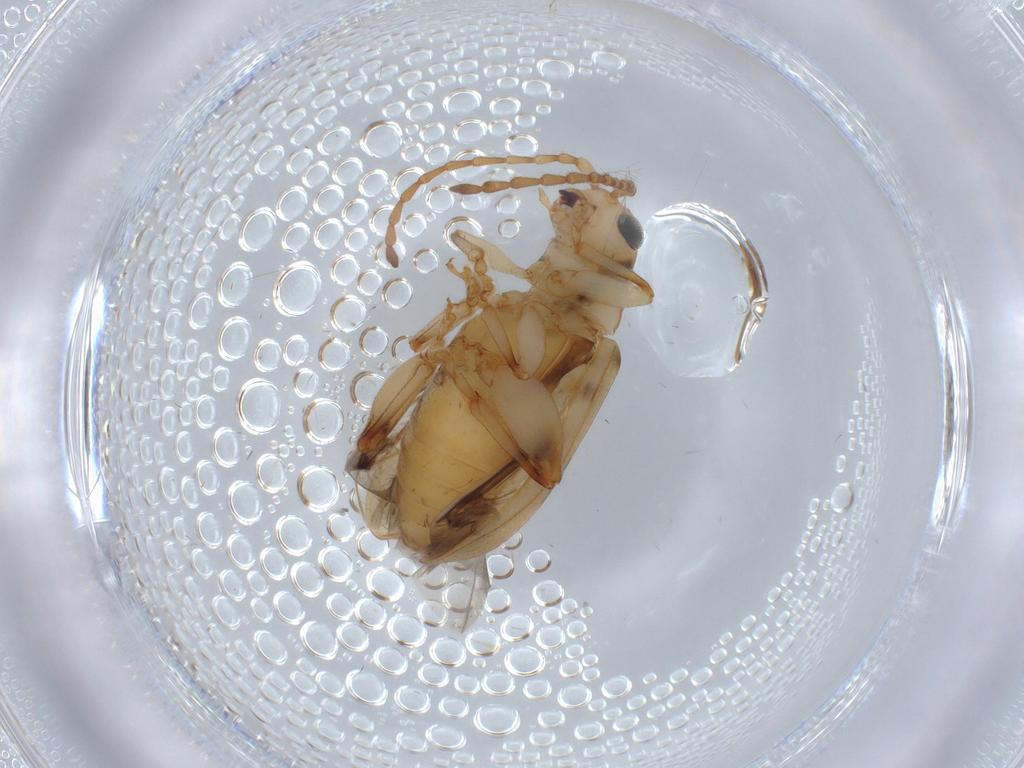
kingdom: Animalia
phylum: Arthropoda
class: Insecta
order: Coleoptera
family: Chrysomelidae
